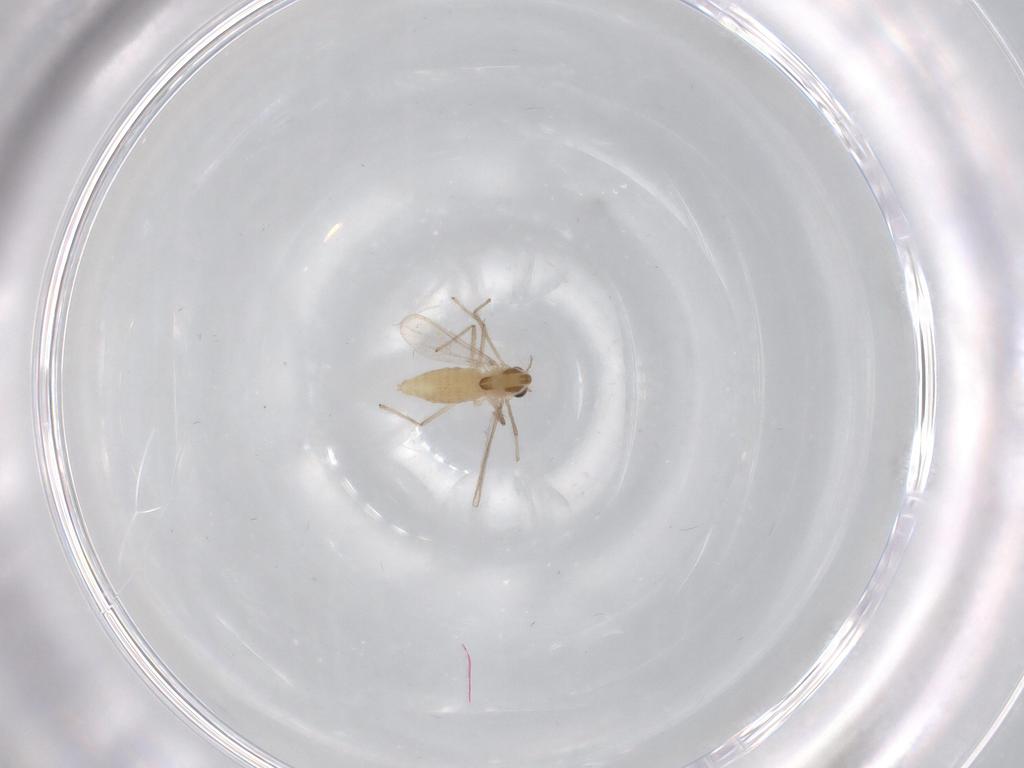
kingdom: Animalia
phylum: Arthropoda
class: Insecta
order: Diptera
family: Chironomidae
